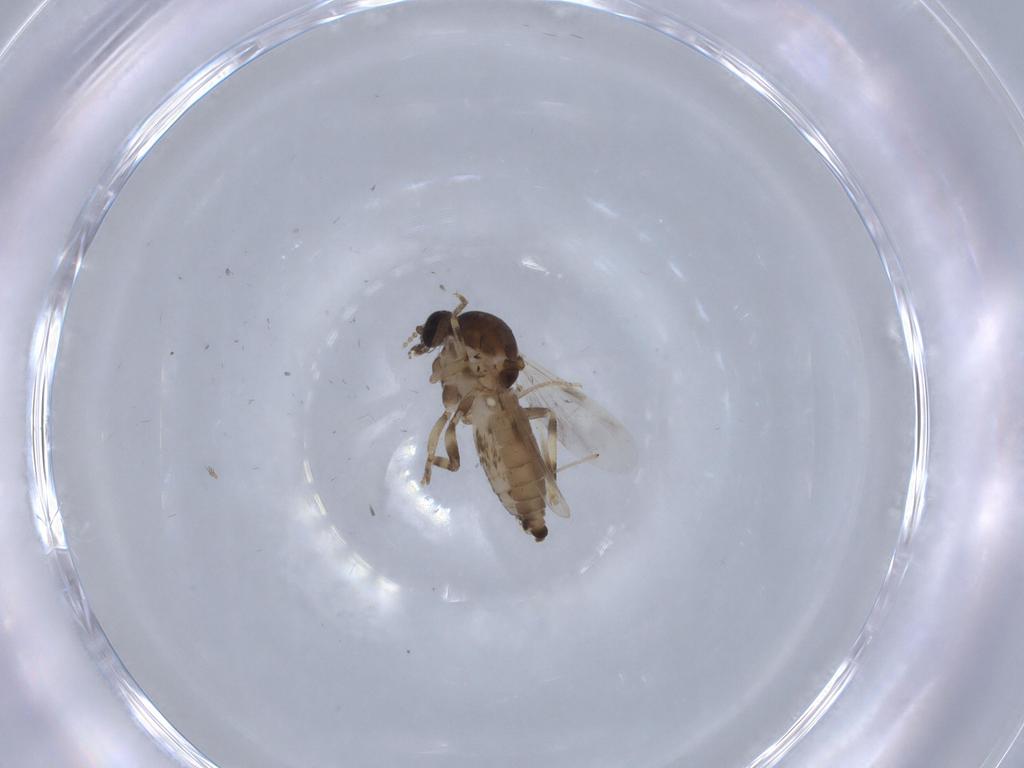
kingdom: Animalia
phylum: Arthropoda
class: Insecta
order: Diptera
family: Ceratopogonidae
